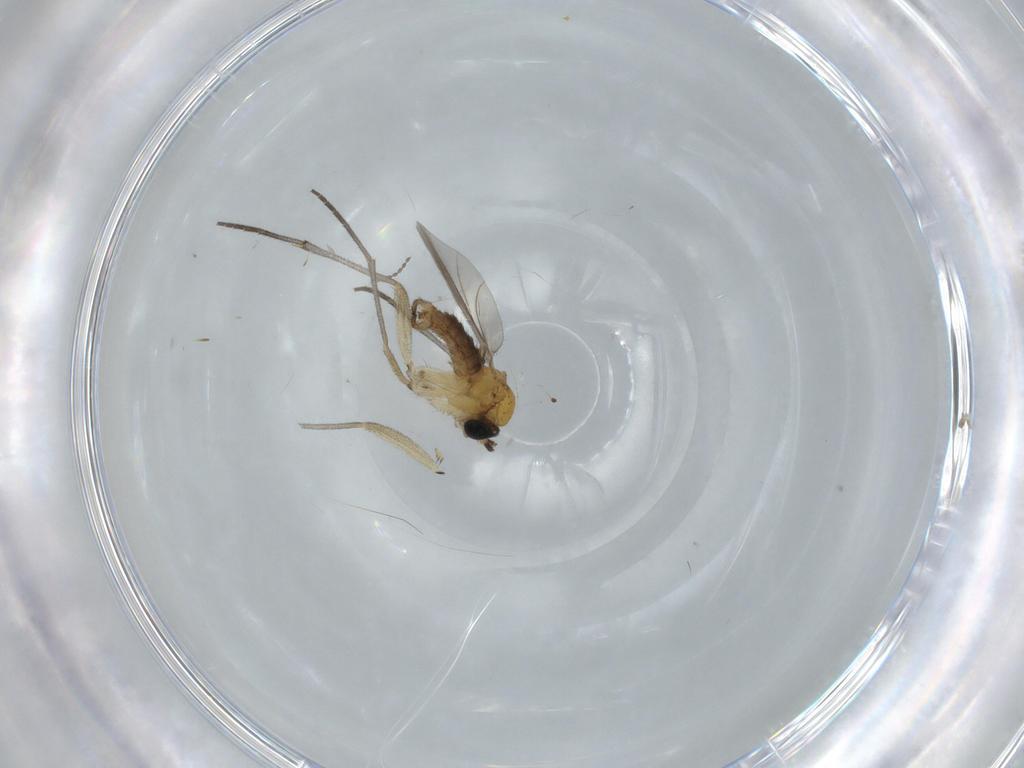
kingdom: Animalia
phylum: Arthropoda
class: Insecta
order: Diptera
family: Cecidomyiidae
